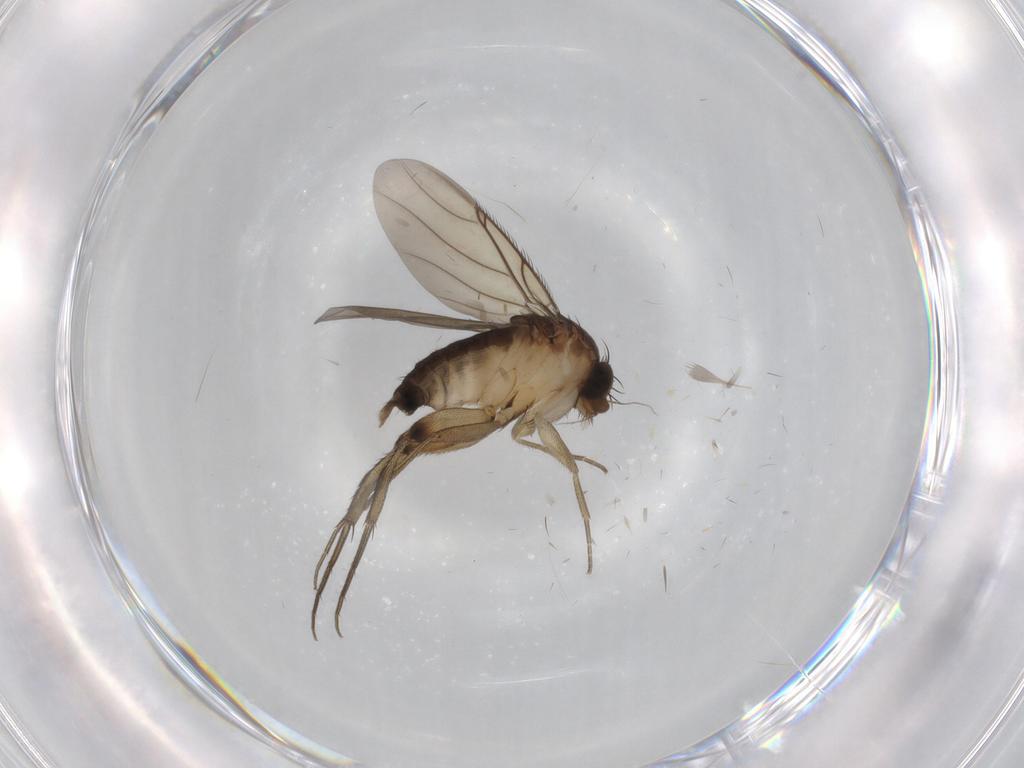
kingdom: Animalia
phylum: Arthropoda
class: Insecta
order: Diptera
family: Phoridae
